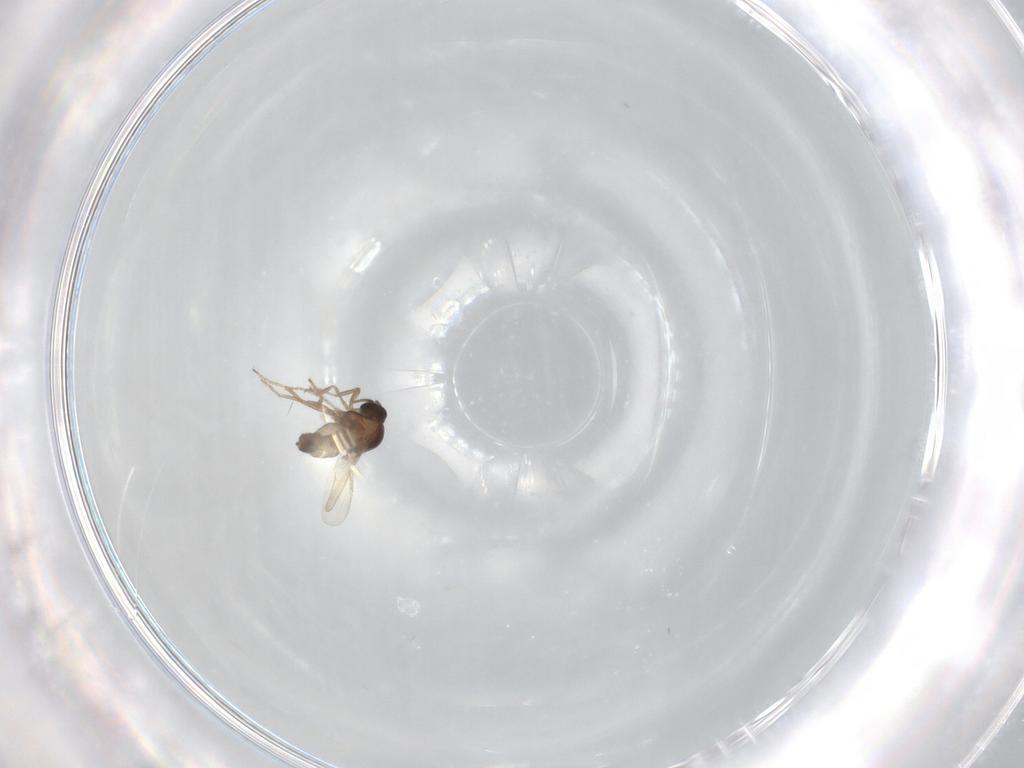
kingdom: Animalia
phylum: Arthropoda
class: Insecta
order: Diptera
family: Ceratopogonidae
